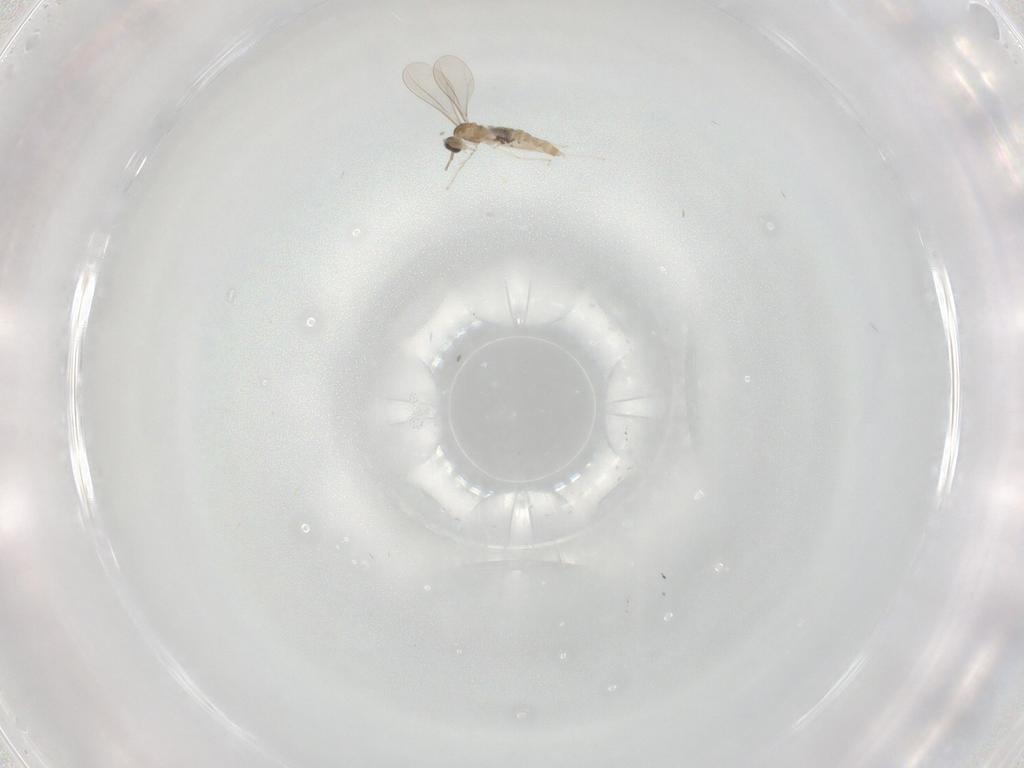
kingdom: Animalia
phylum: Arthropoda
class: Insecta
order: Diptera
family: Cecidomyiidae
